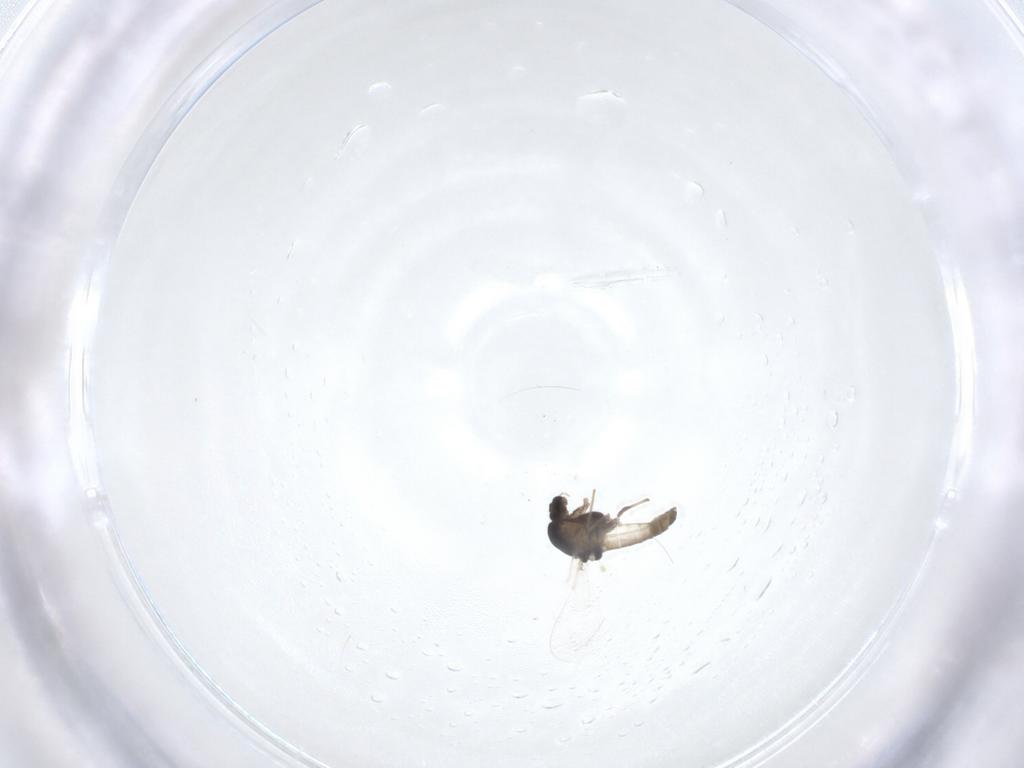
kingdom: Animalia
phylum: Arthropoda
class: Insecta
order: Diptera
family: Chironomidae
